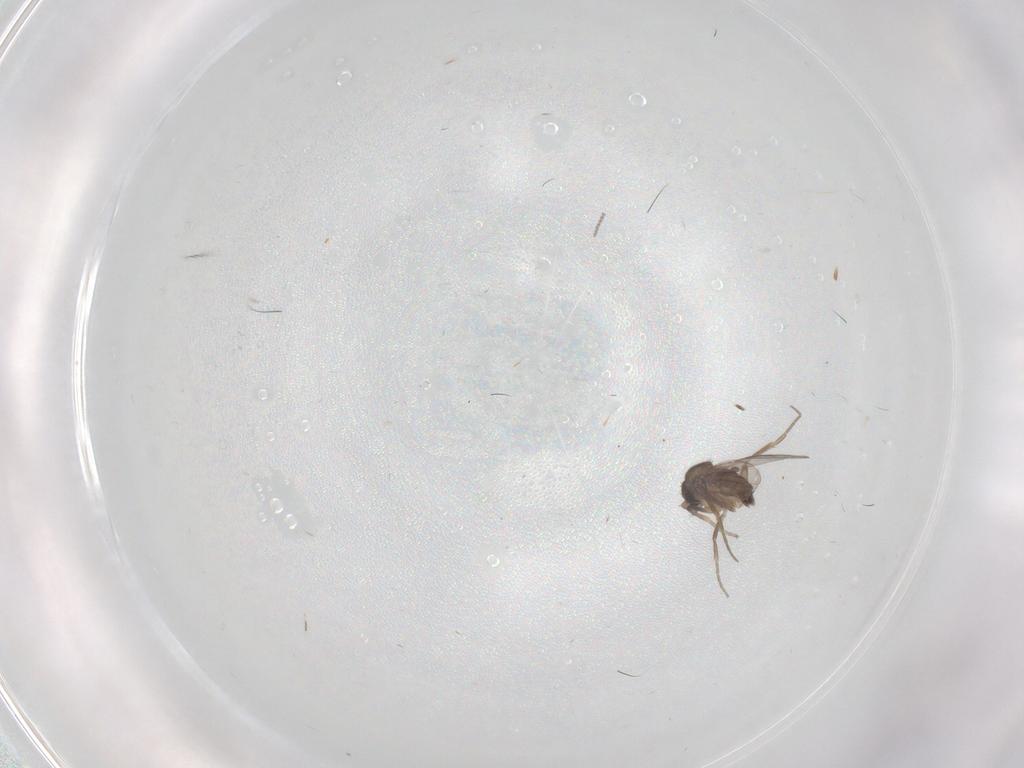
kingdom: Animalia
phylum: Arthropoda
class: Insecta
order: Diptera
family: Phoridae
